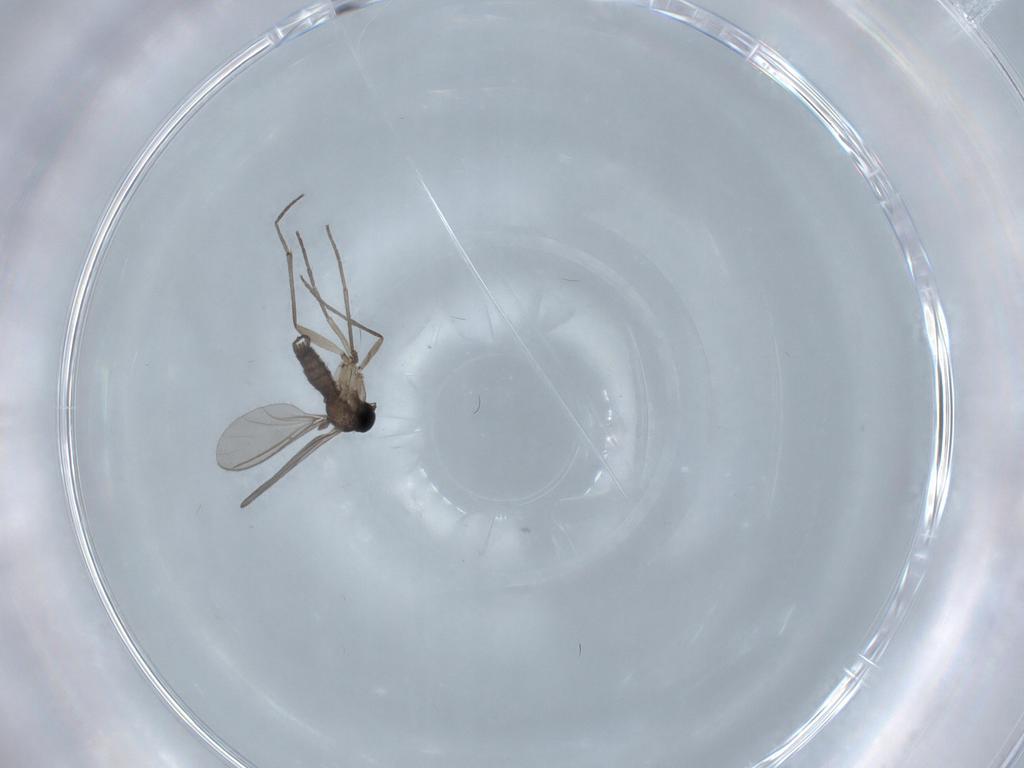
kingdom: Animalia
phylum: Arthropoda
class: Insecta
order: Diptera
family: Sciaridae
